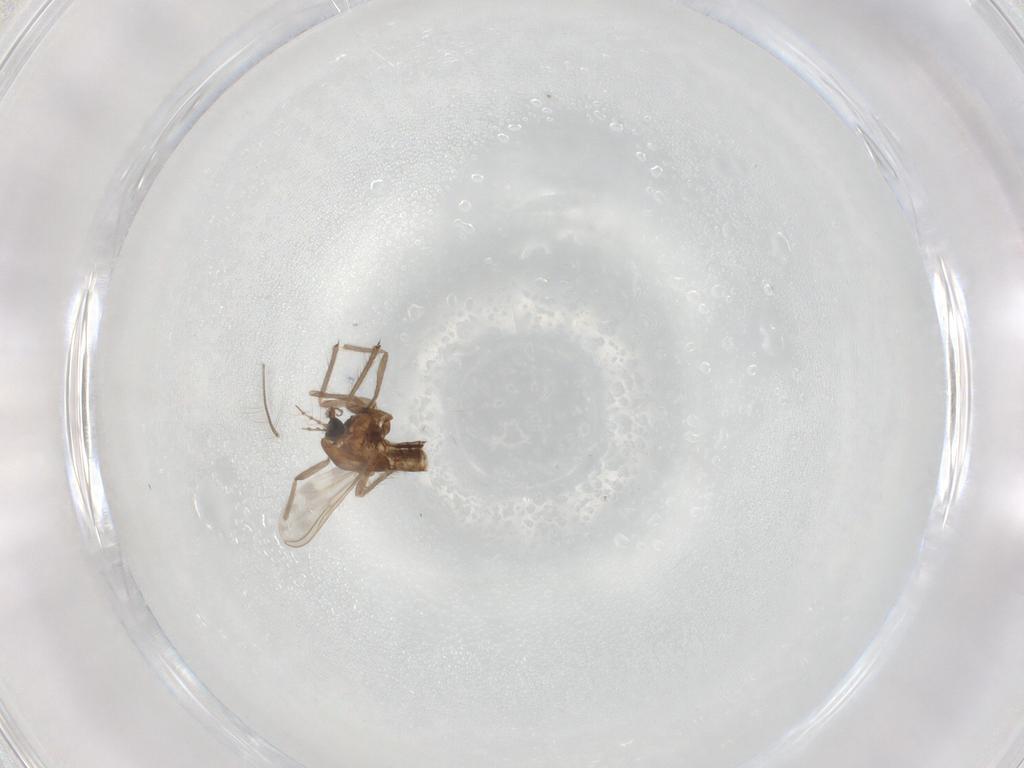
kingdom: Animalia
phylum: Arthropoda
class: Insecta
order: Diptera
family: Chironomidae
